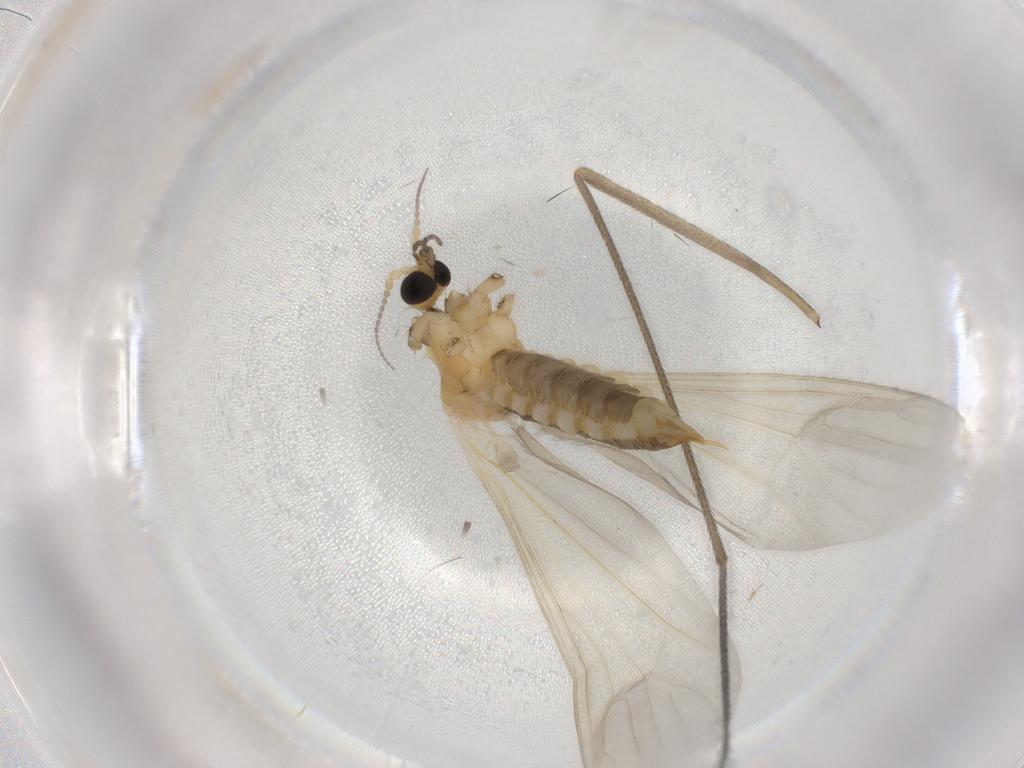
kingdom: Animalia
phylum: Arthropoda
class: Insecta
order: Diptera
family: Limoniidae
